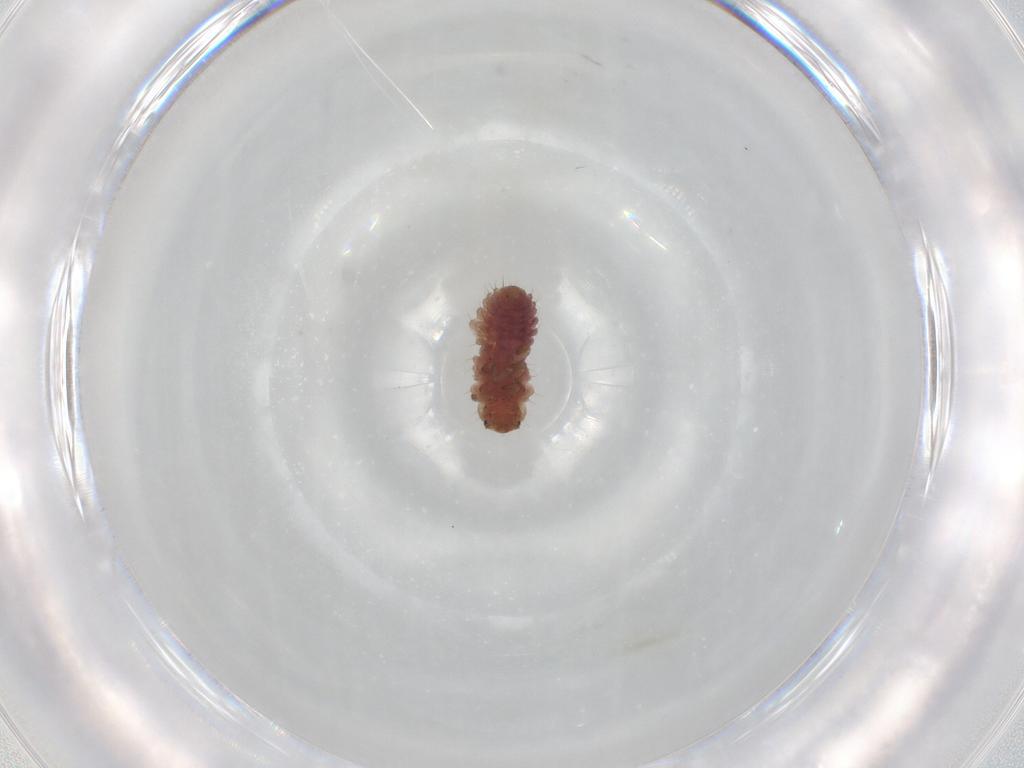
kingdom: Animalia
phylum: Arthropoda
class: Insecta
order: Coleoptera
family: Coccinellidae
